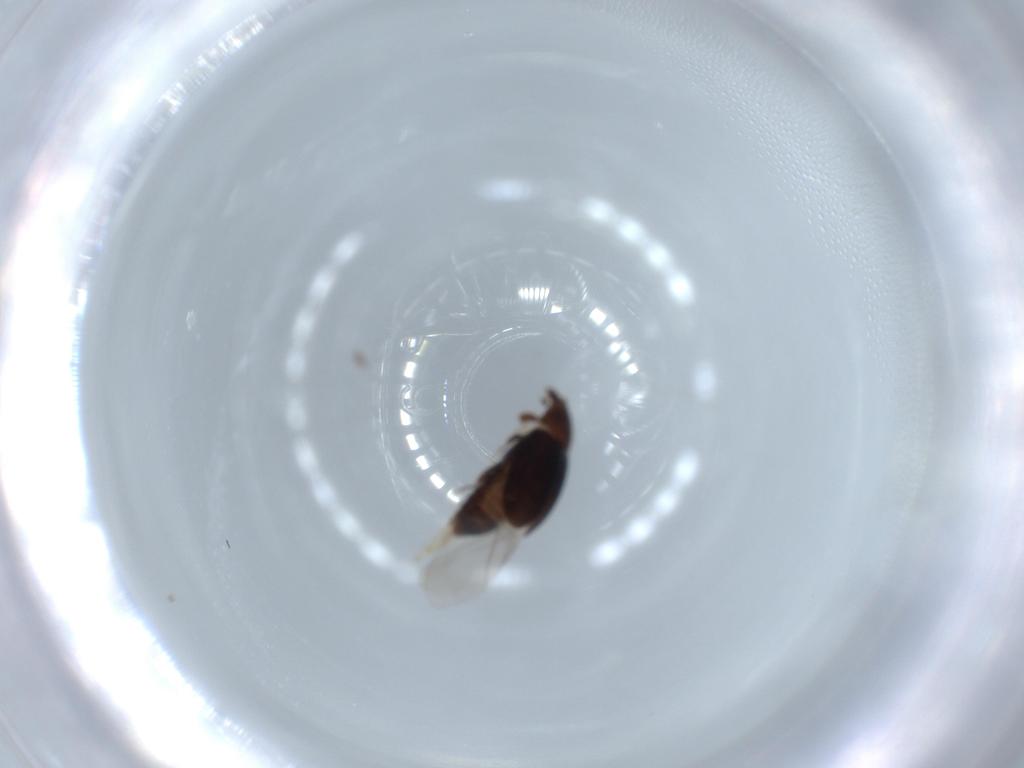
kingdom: Animalia
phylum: Arthropoda
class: Insecta
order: Coleoptera
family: Corylophidae
